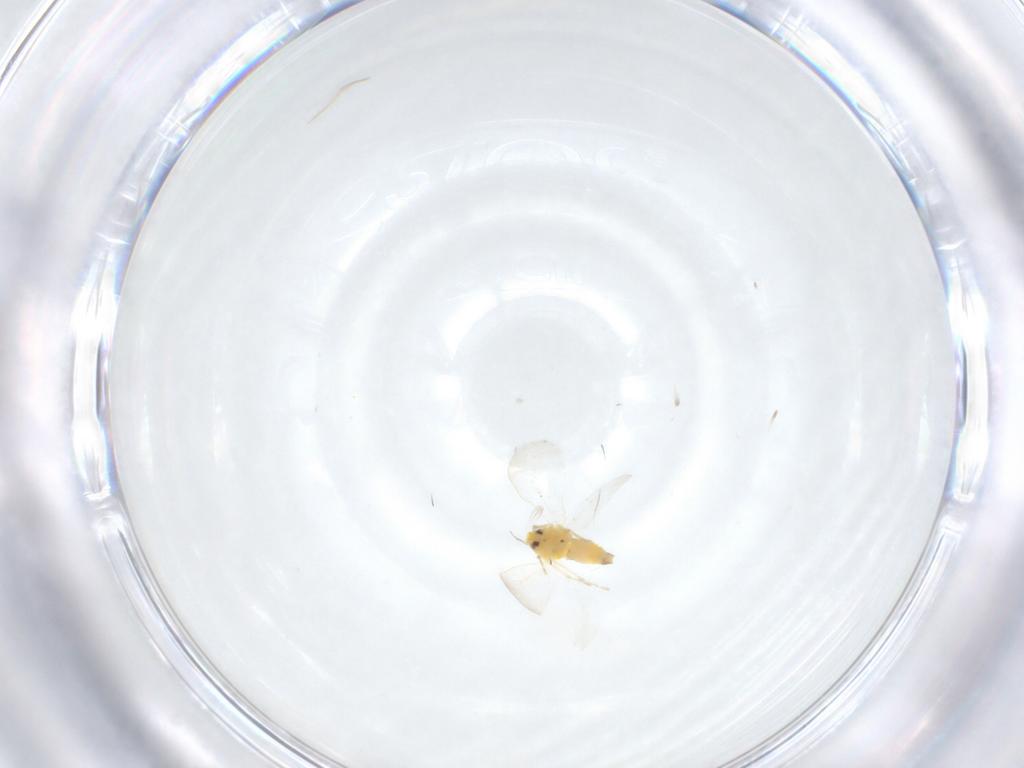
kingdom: Animalia
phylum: Arthropoda
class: Insecta
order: Hemiptera
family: Aleyrodidae
